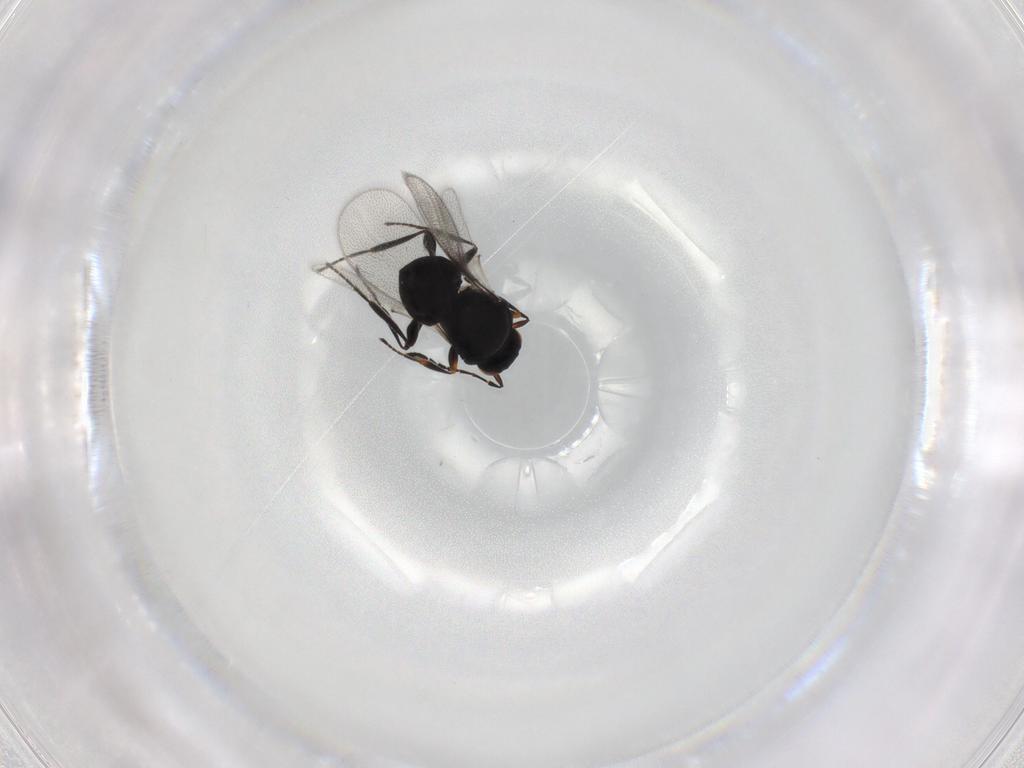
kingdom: Animalia
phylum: Arthropoda
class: Insecta
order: Hymenoptera
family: Platygastridae
